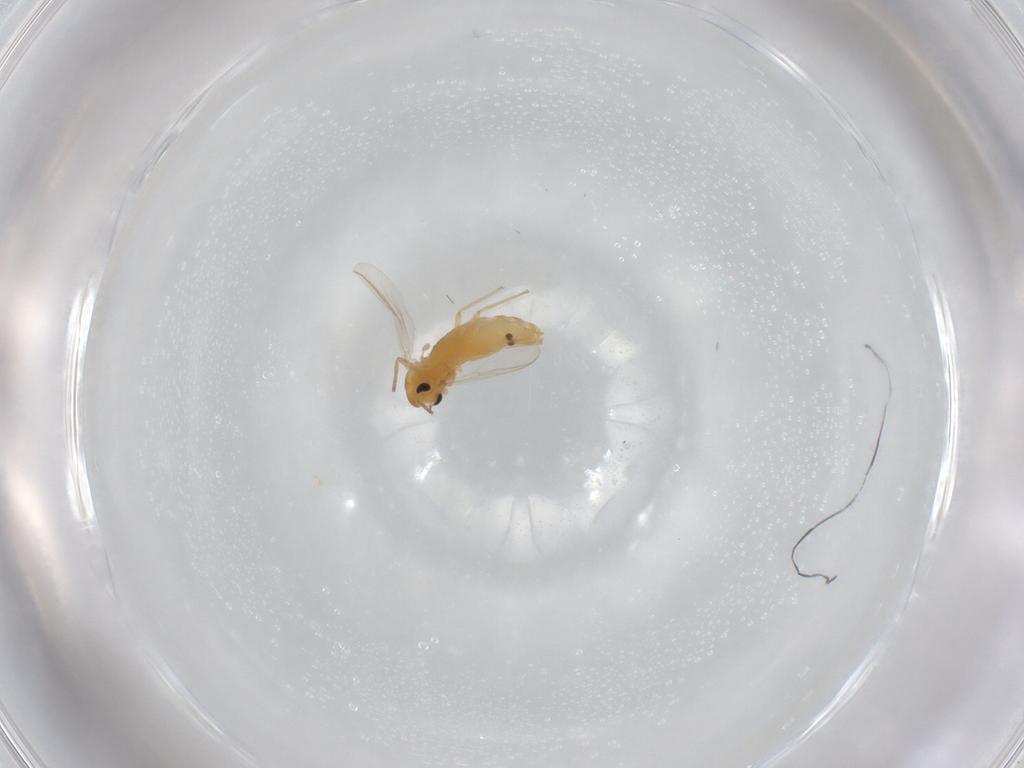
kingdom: Animalia
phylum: Arthropoda
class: Insecta
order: Diptera
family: Chironomidae
